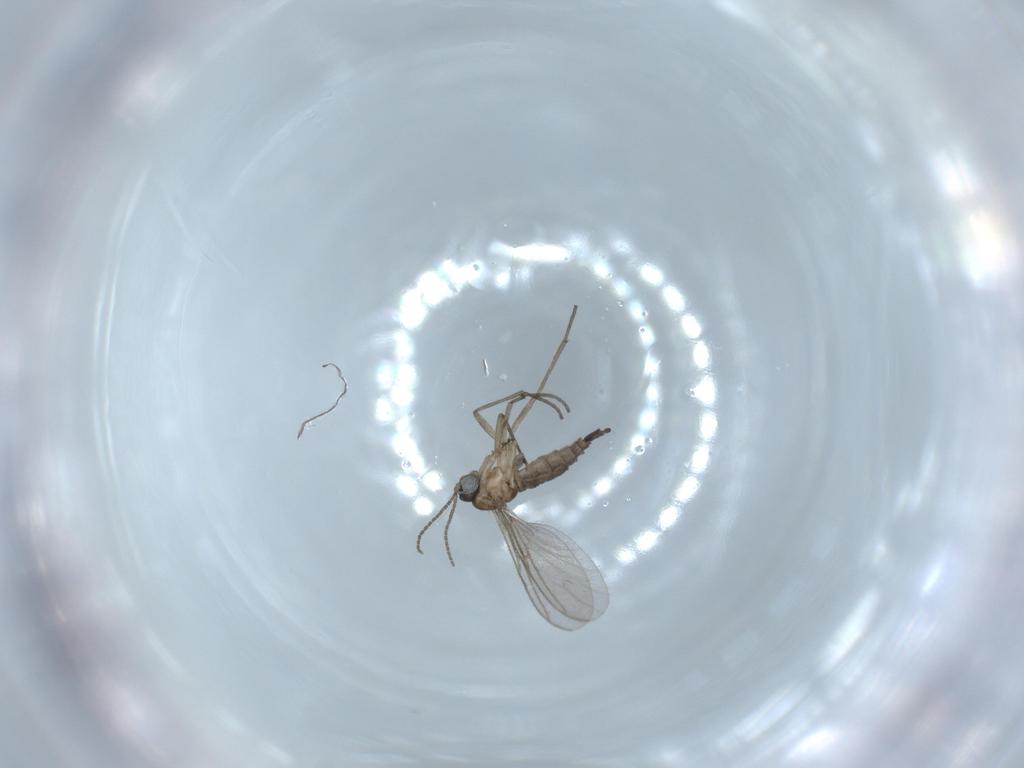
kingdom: Animalia
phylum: Arthropoda
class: Insecta
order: Diptera
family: Sciaridae
